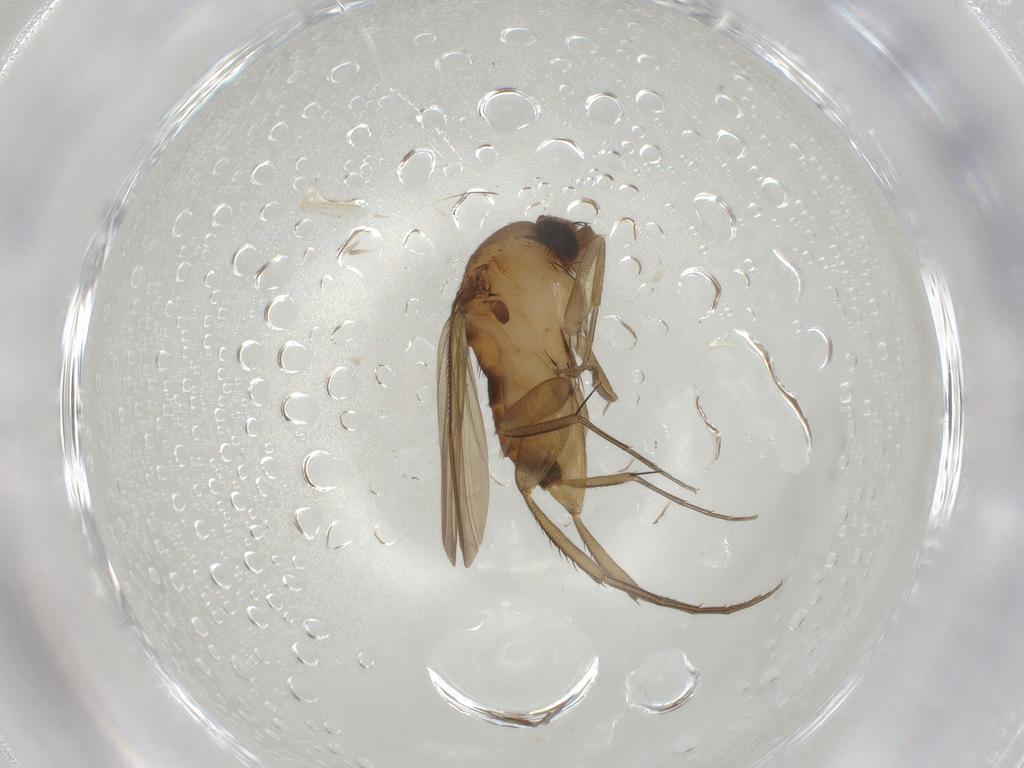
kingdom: Animalia
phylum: Arthropoda
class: Insecta
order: Diptera
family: Phoridae
